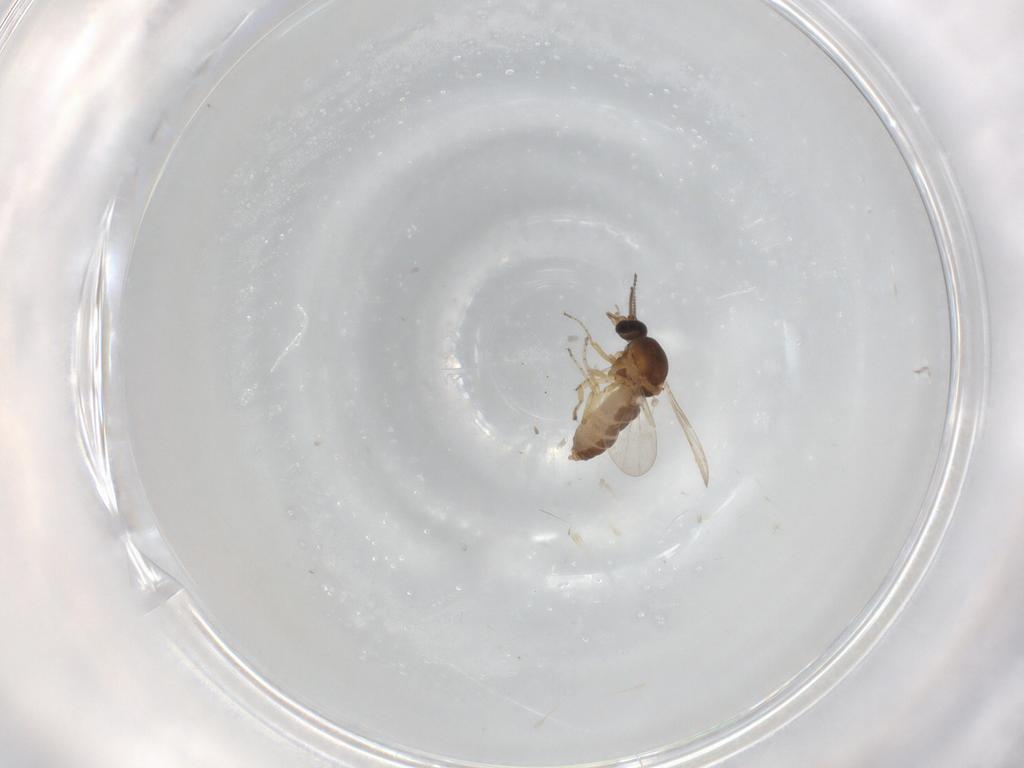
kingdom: Animalia
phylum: Arthropoda
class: Insecta
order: Diptera
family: Ceratopogonidae
